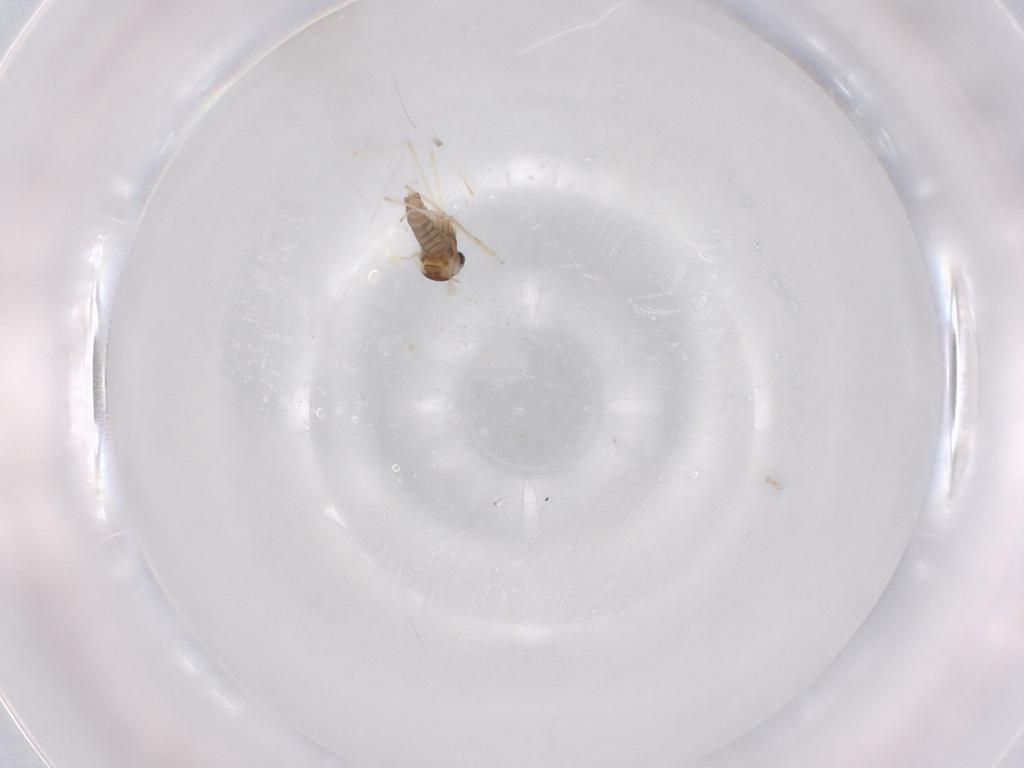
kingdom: Animalia
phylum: Arthropoda
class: Insecta
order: Diptera
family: Cecidomyiidae
